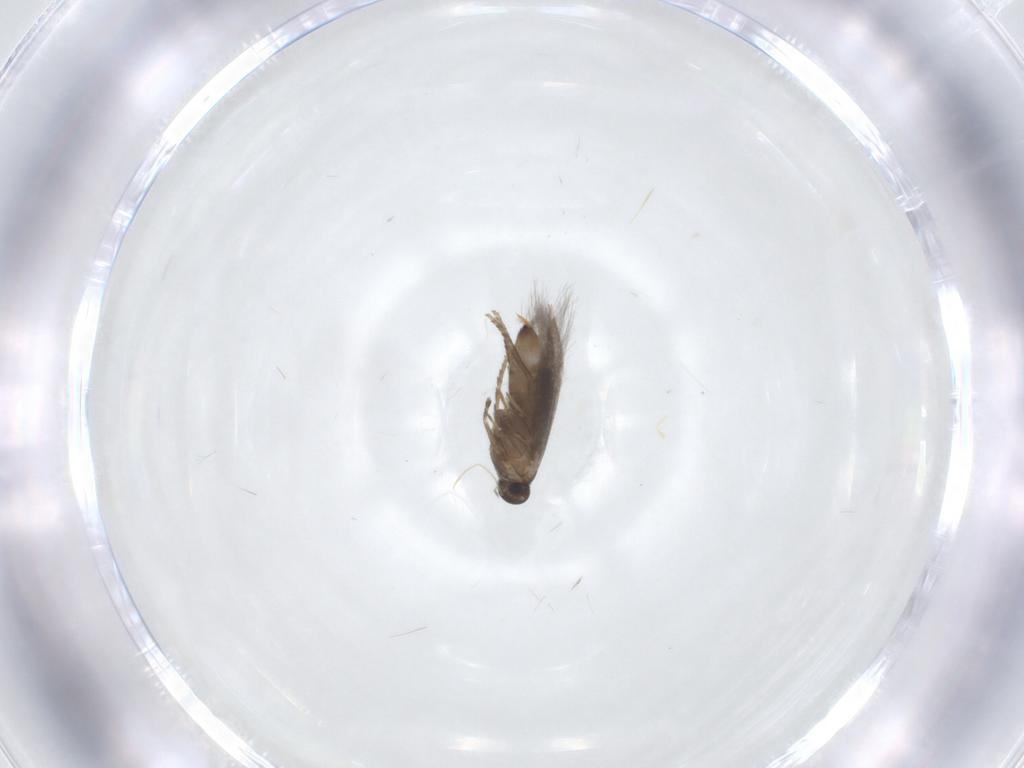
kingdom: Animalia
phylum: Arthropoda
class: Insecta
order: Lepidoptera
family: Heliozelidae
